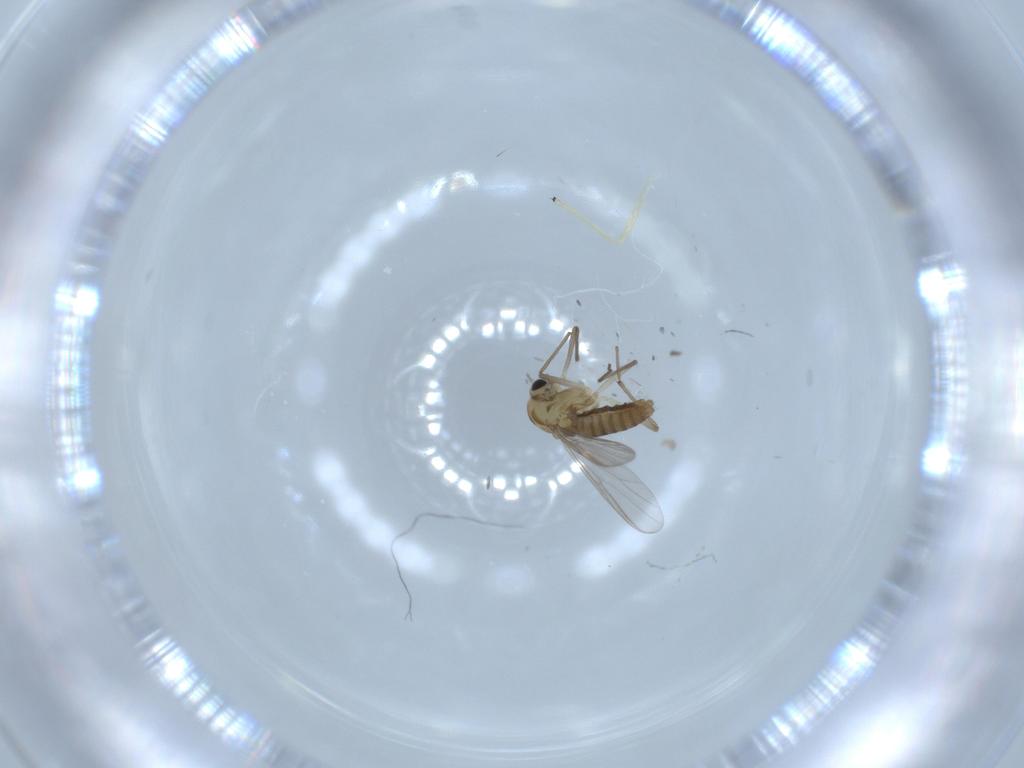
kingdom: Animalia
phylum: Arthropoda
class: Insecta
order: Diptera
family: Chironomidae
